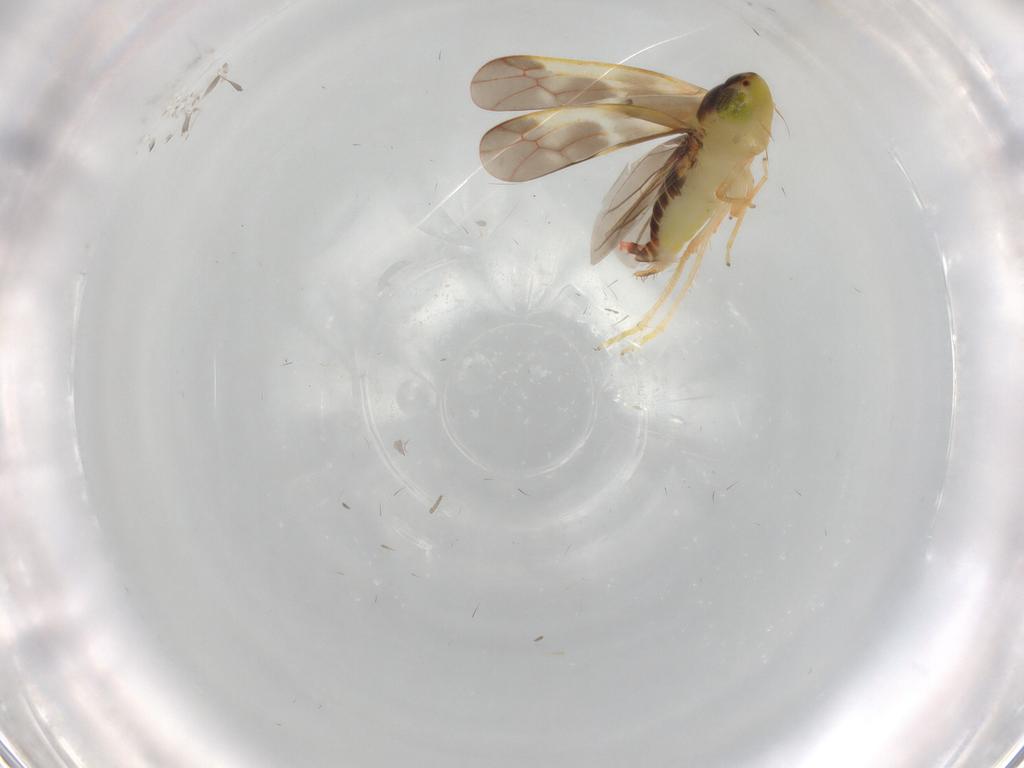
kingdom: Animalia
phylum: Arthropoda
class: Insecta
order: Hemiptera
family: Cicadellidae
